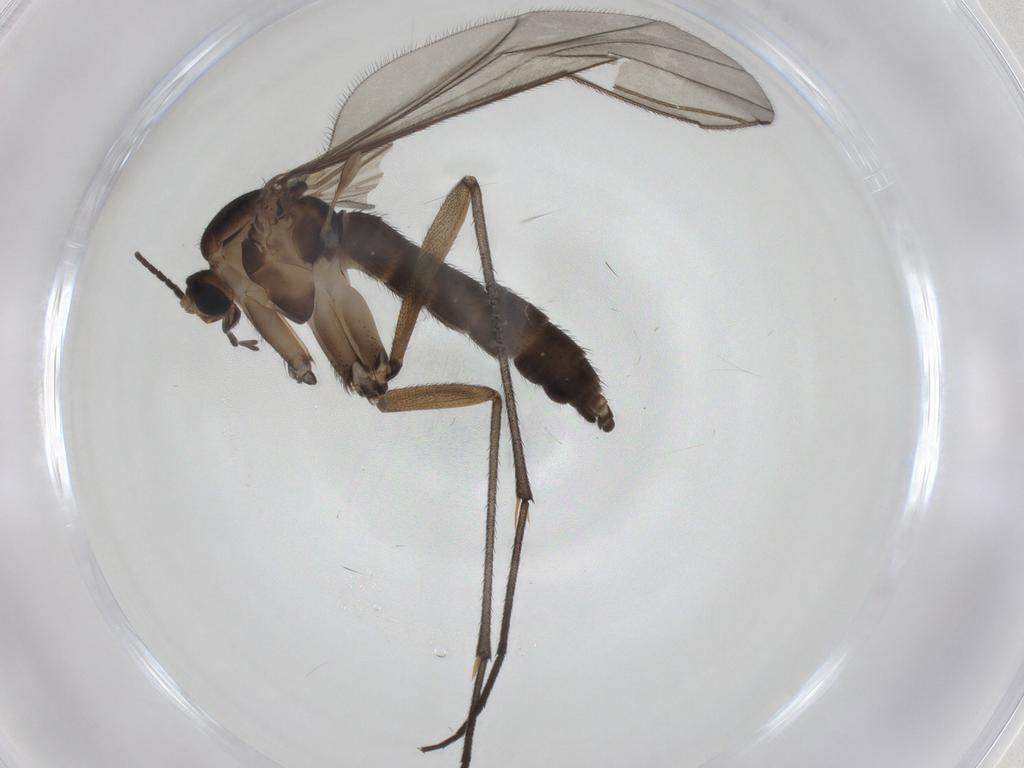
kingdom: Animalia
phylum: Arthropoda
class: Insecta
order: Diptera
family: Sciaridae
